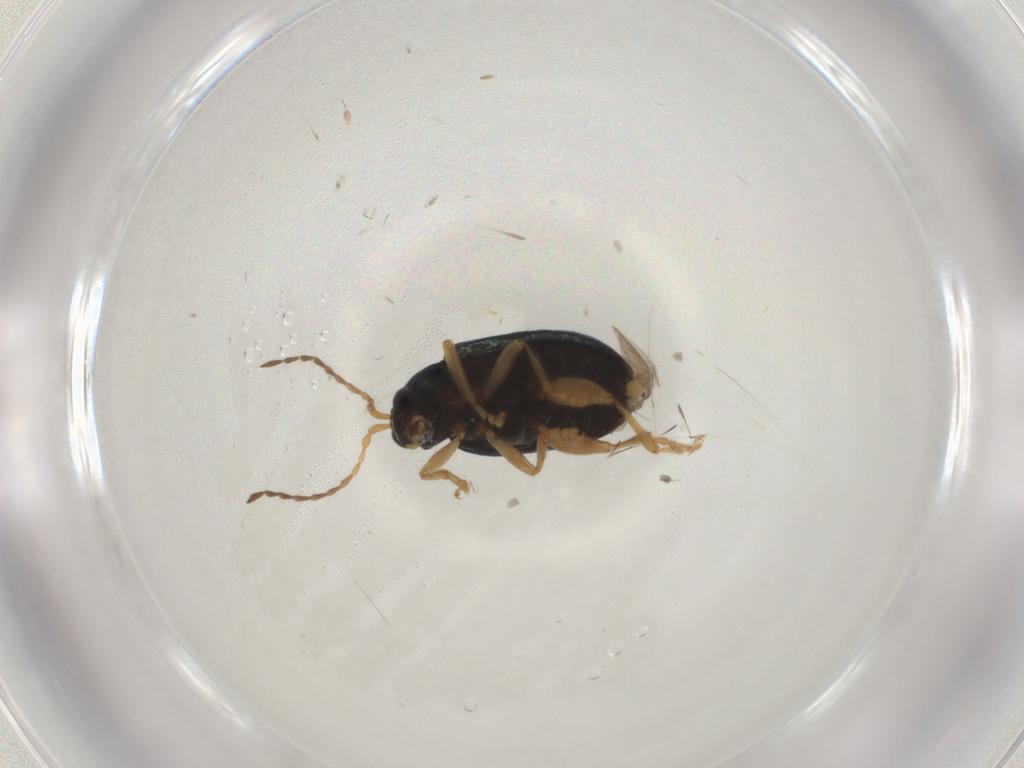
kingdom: Animalia
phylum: Arthropoda
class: Insecta
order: Coleoptera
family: Chrysomelidae
